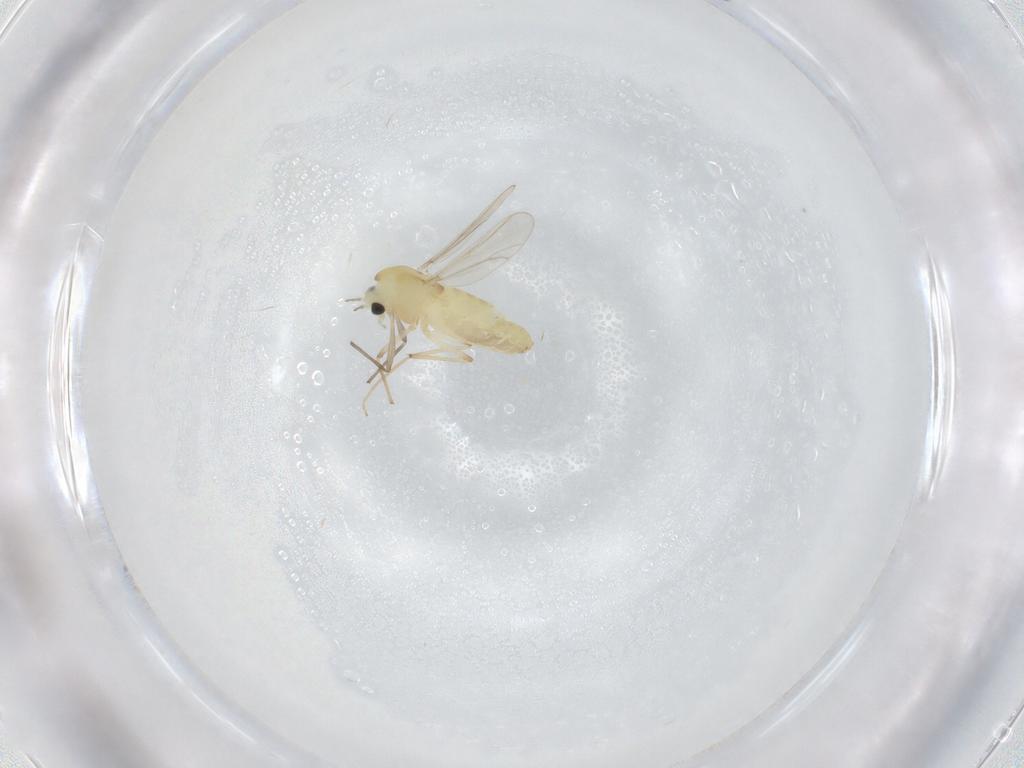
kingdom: Animalia
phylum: Arthropoda
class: Insecta
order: Diptera
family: Chironomidae
